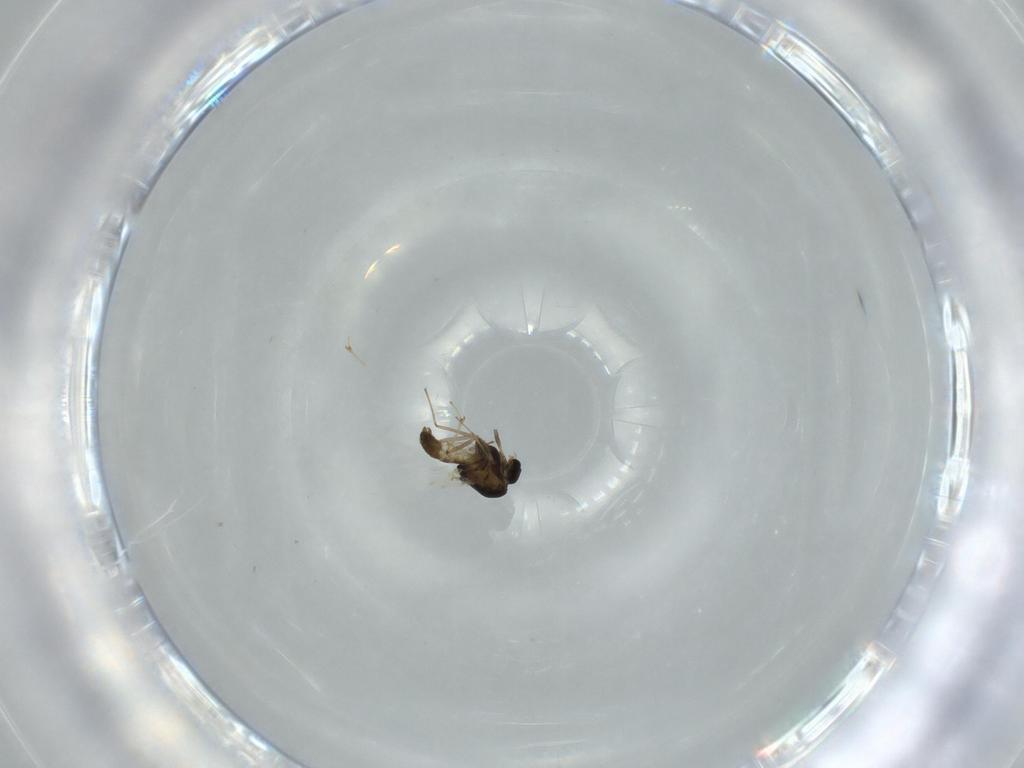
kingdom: Animalia
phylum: Arthropoda
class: Insecta
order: Diptera
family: Chironomidae
